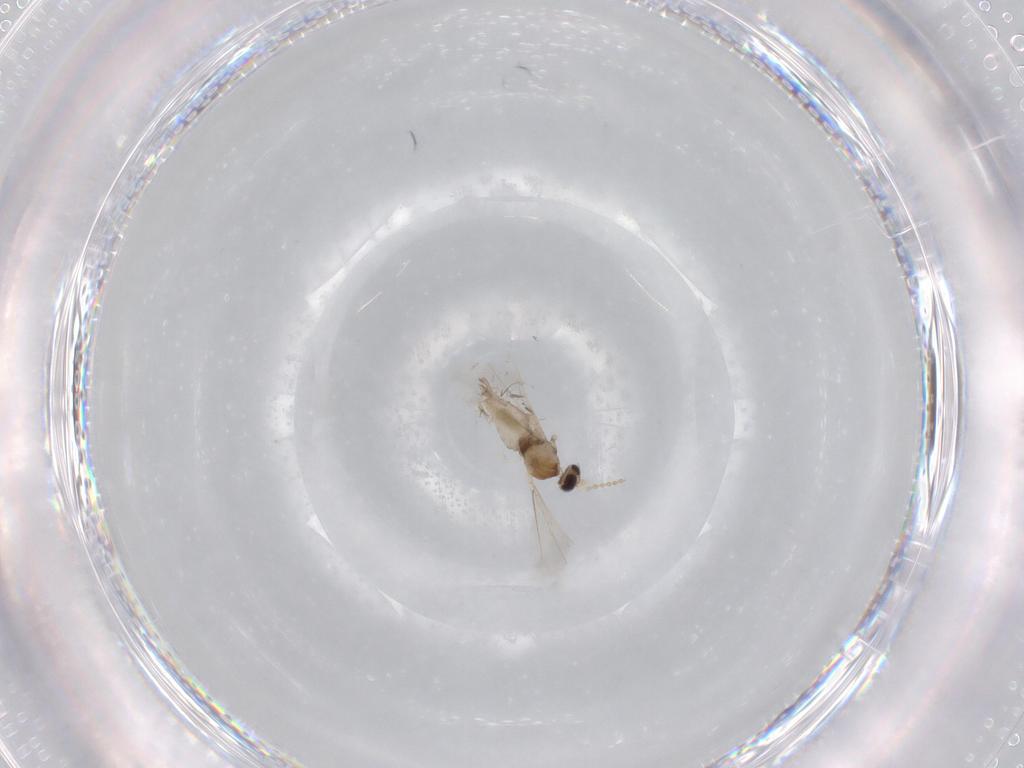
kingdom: Animalia
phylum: Arthropoda
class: Insecta
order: Diptera
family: Cecidomyiidae
